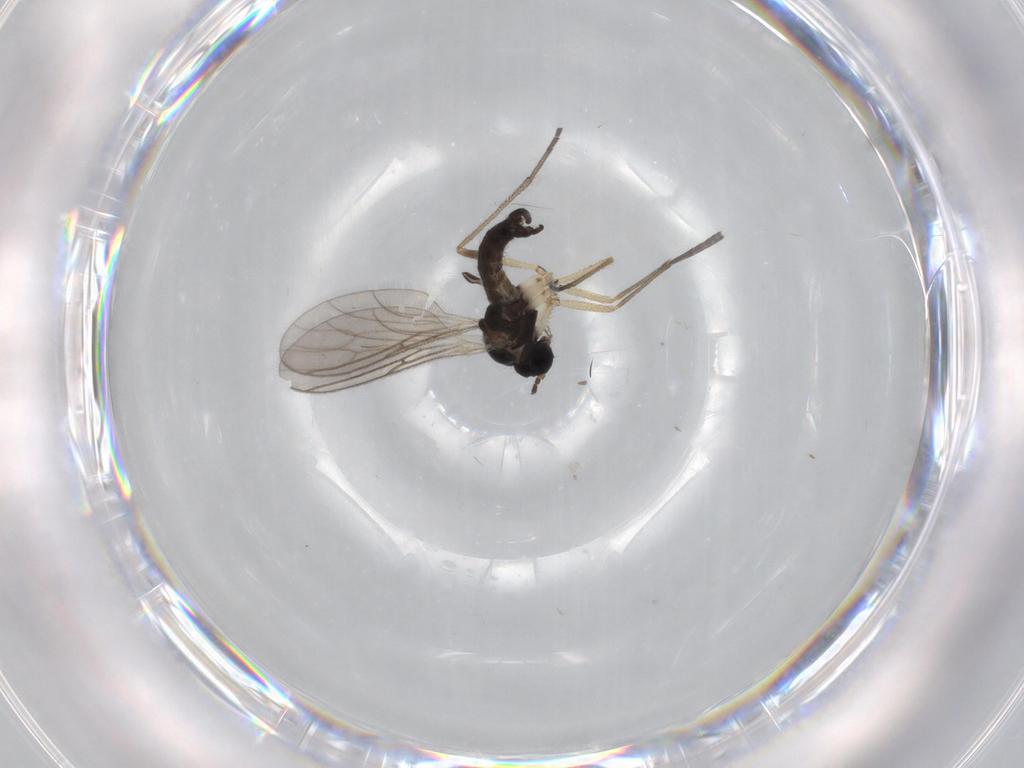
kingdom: Animalia
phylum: Arthropoda
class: Insecta
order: Diptera
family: Sciaridae
